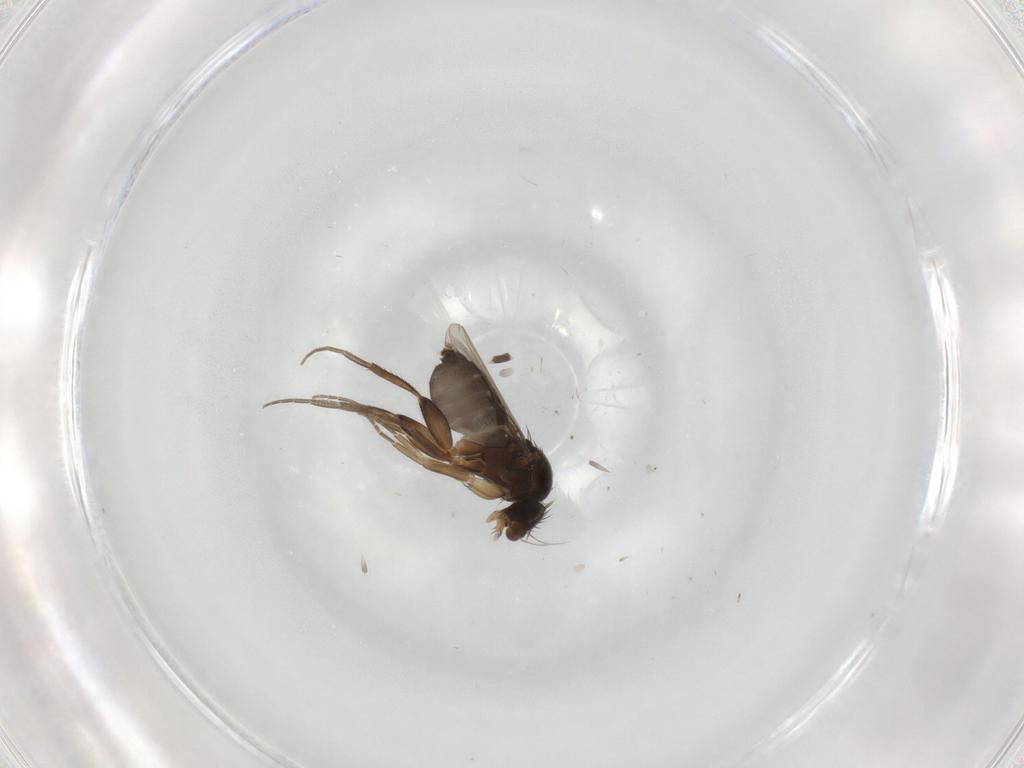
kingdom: Animalia
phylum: Arthropoda
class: Insecta
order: Diptera
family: Phoridae
